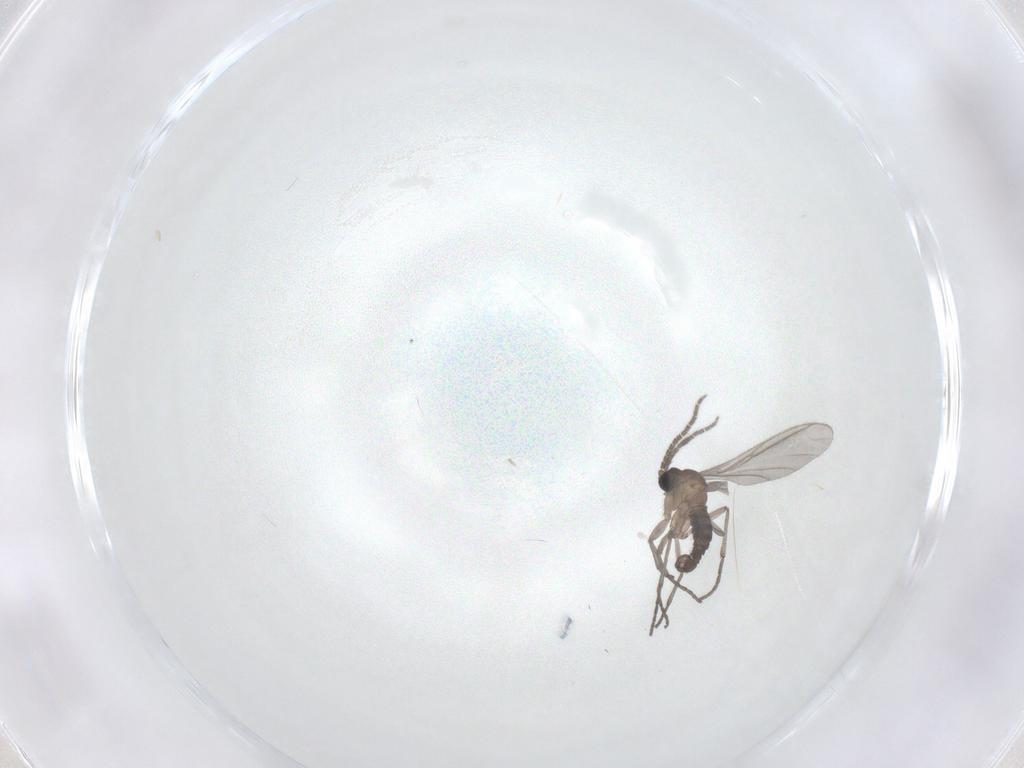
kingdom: Animalia
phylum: Arthropoda
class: Insecta
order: Diptera
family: Sciaridae
